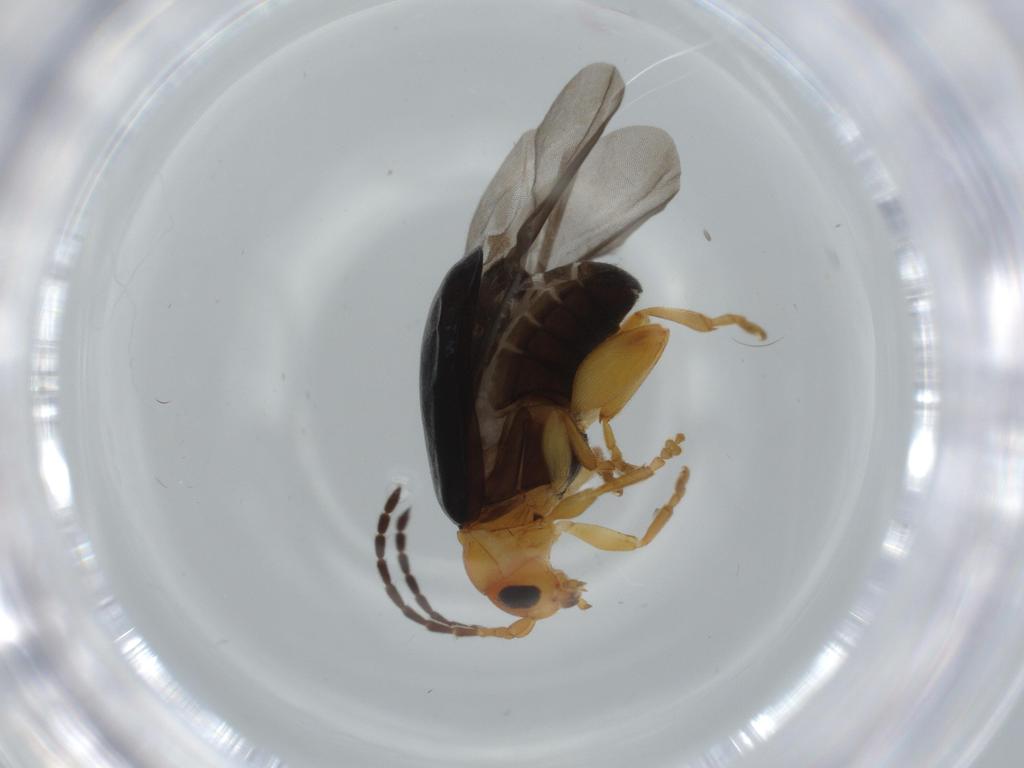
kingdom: Animalia
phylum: Arthropoda
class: Insecta
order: Coleoptera
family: Chrysomelidae
